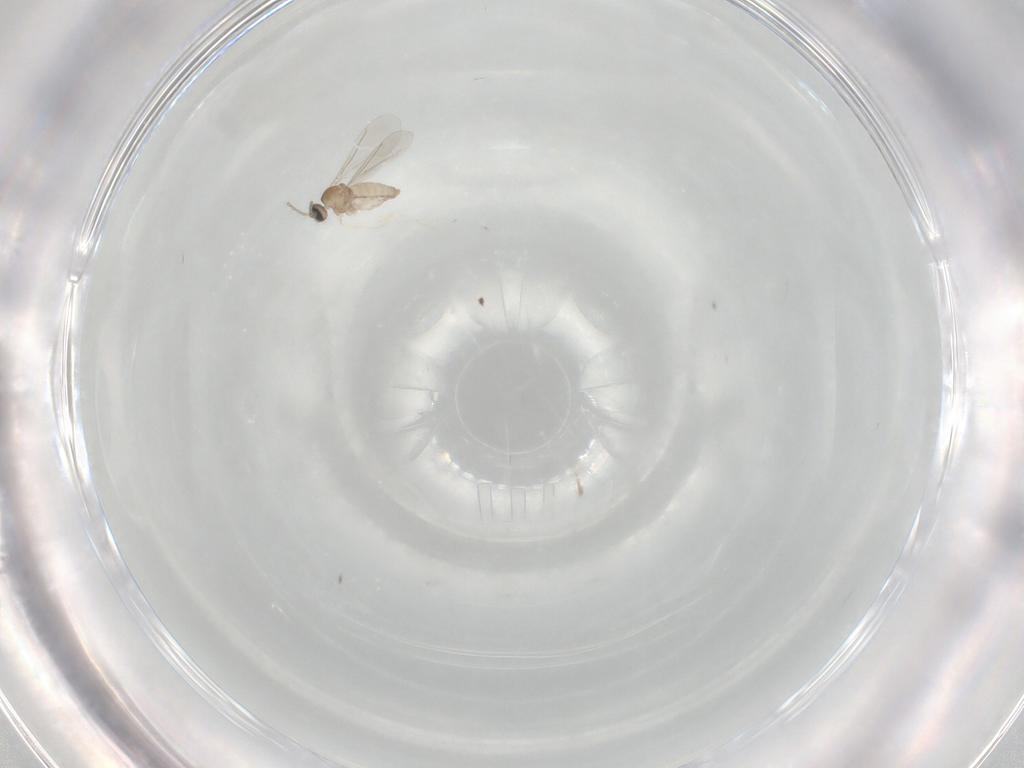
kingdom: Animalia
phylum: Arthropoda
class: Insecta
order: Diptera
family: Cecidomyiidae
